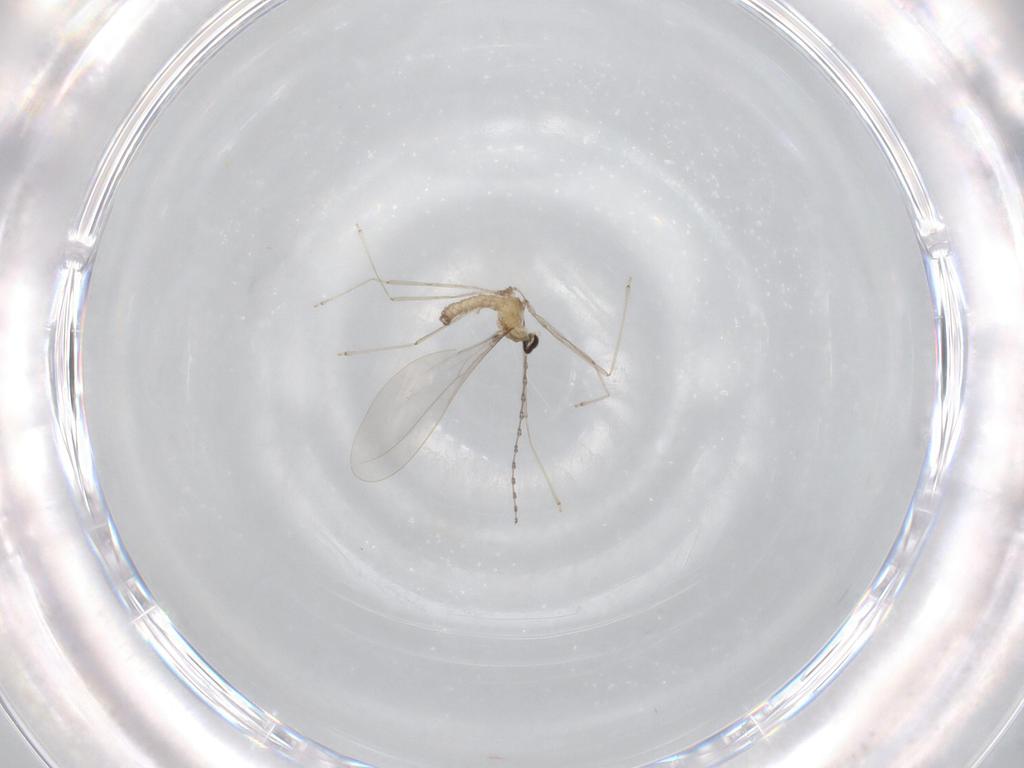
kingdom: Animalia
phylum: Arthropoda
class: Insecta
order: Diptera
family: Cecidomyiidae
